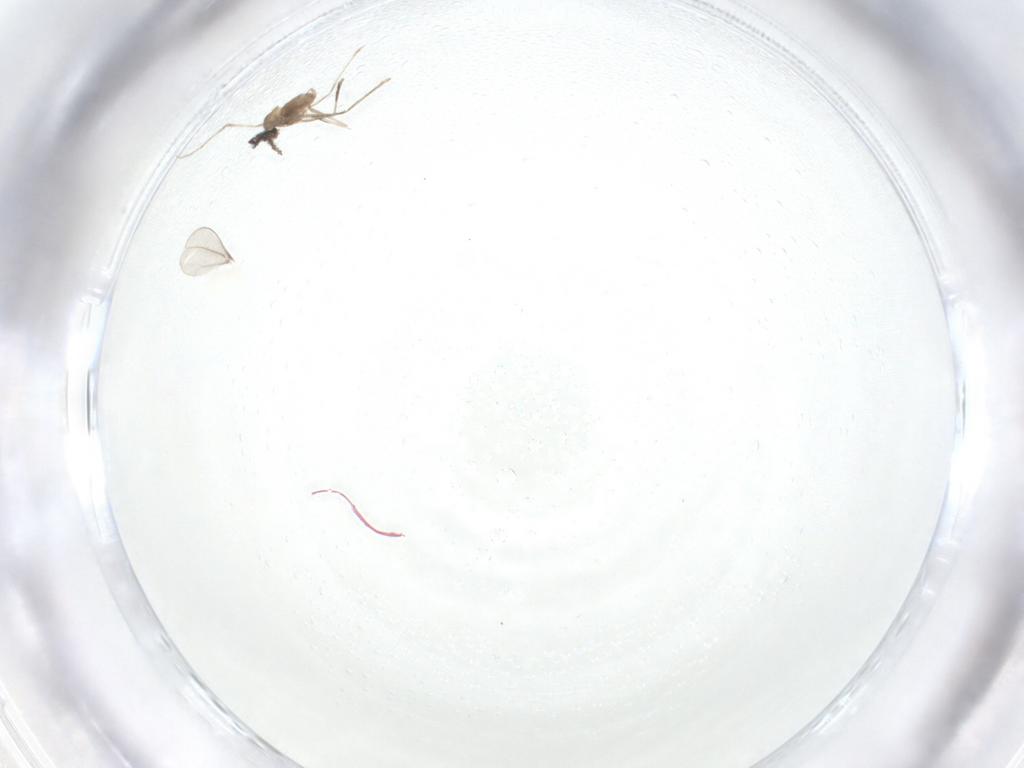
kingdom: Animalia
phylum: Arthropoda
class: Insecta
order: Diptera
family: Cecidomyiidae
